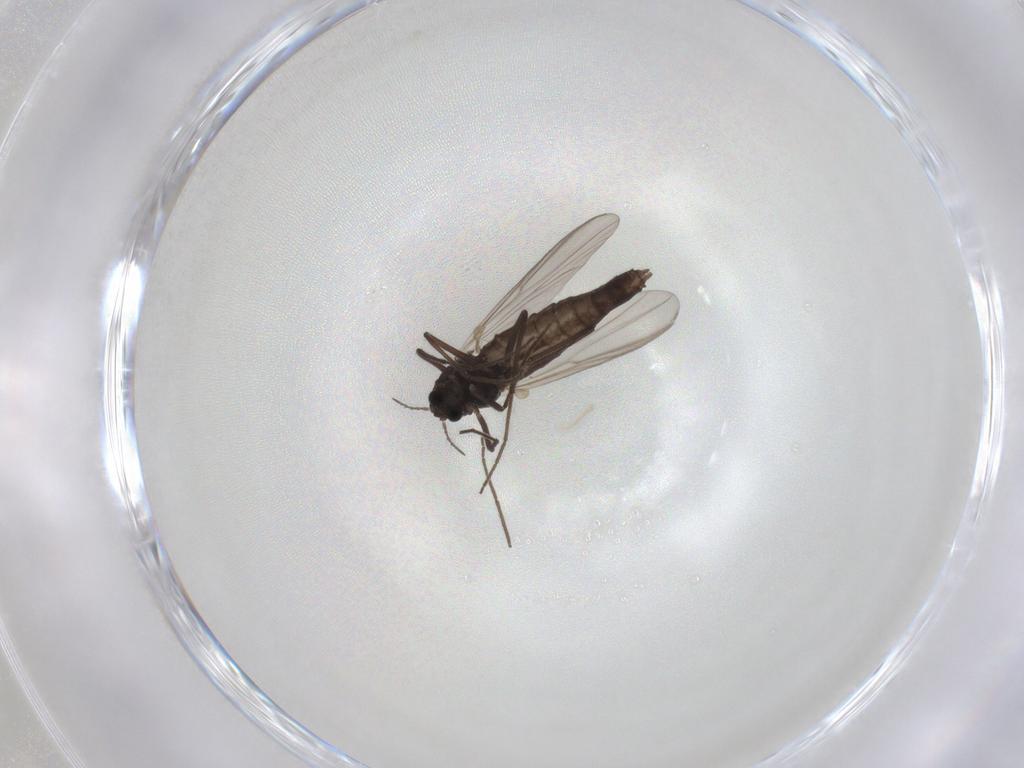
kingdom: Animalia
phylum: Arthropoda
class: Insecta
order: Diptera
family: Chironomidae
